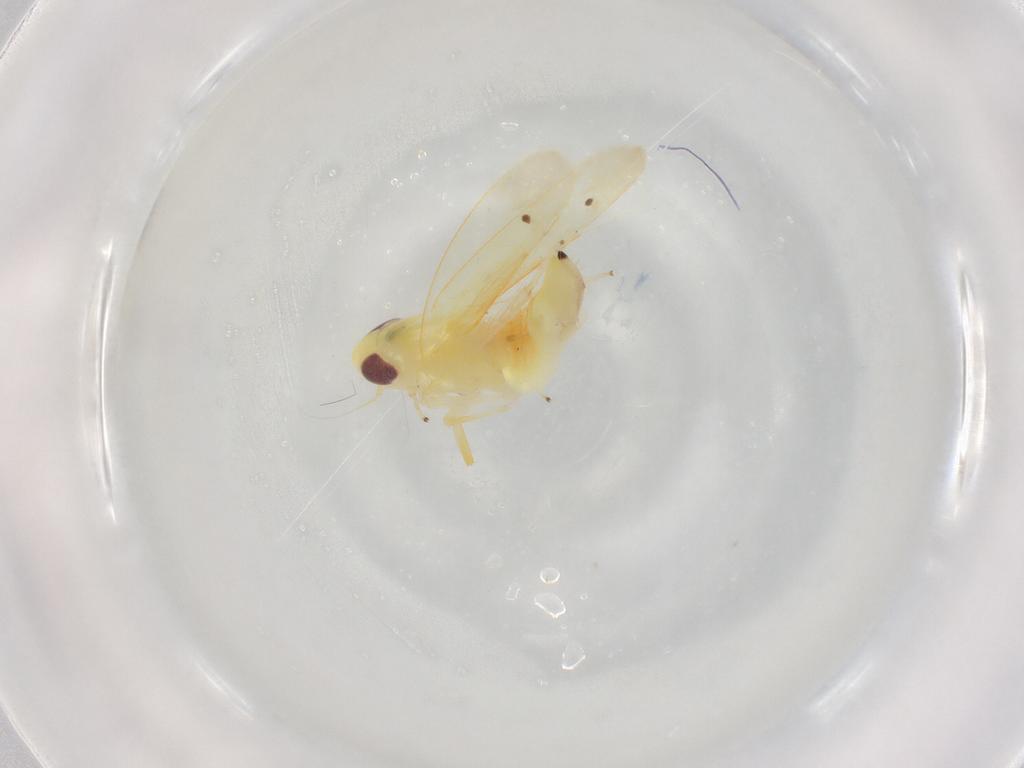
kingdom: Animalia
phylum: Arthropoda
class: Insecta
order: Hemiptera
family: Cicadellidae
